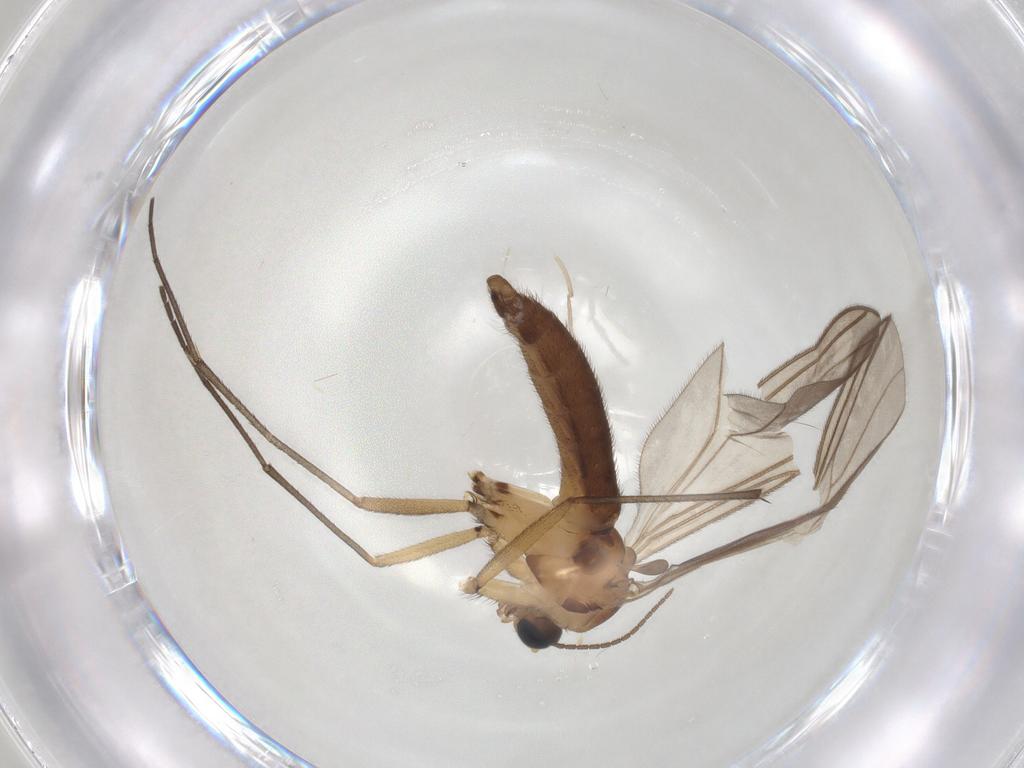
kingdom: Animalia
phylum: Arthropoda
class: Insecta
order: Diptera
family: Psychodidae
